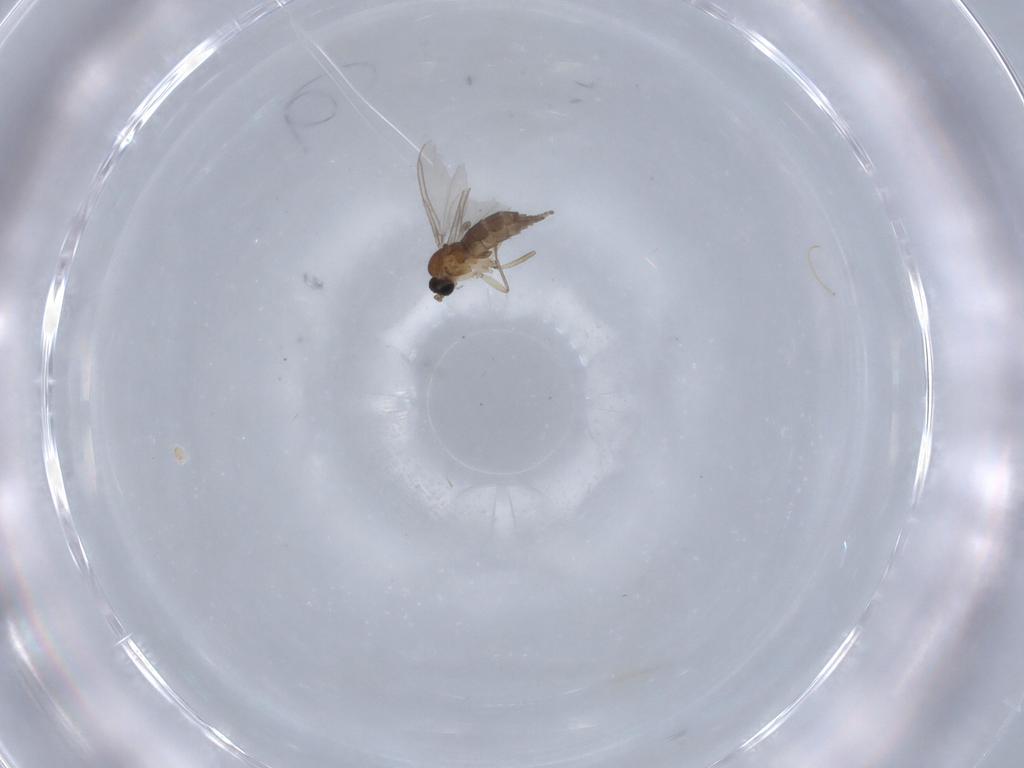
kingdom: Animalia
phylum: Arthropoda
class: Insecta
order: Diptera
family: Sciaridae
